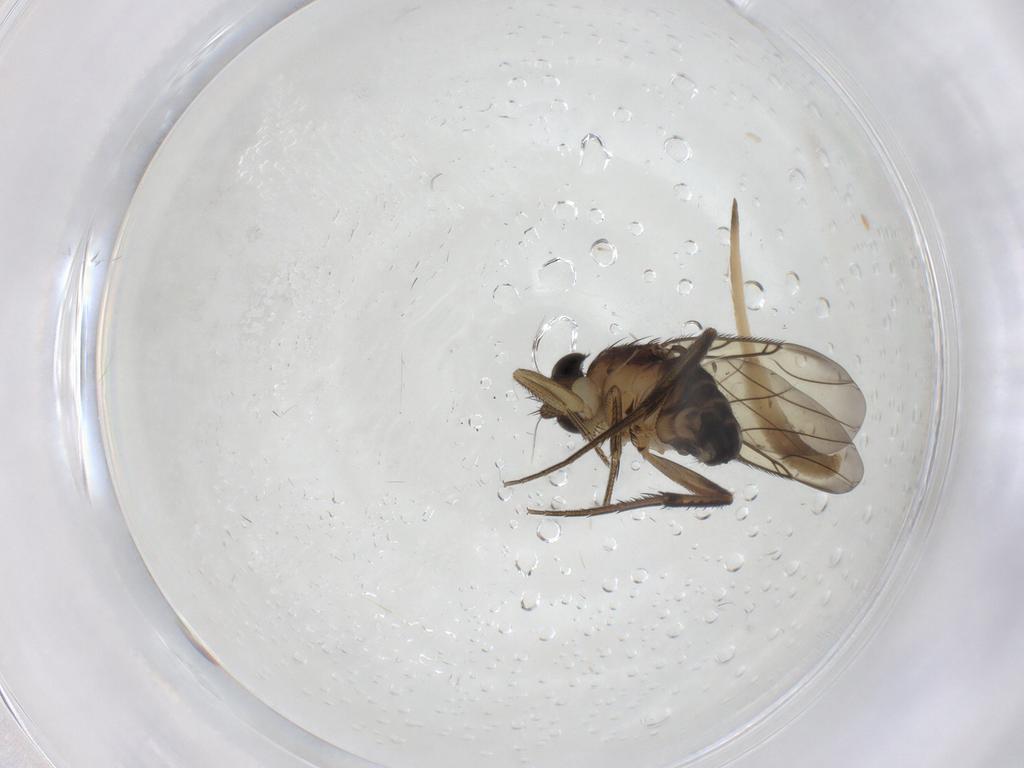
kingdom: Animalia
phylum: Arthropoda
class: Insecta
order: Diptera
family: Phoridae
